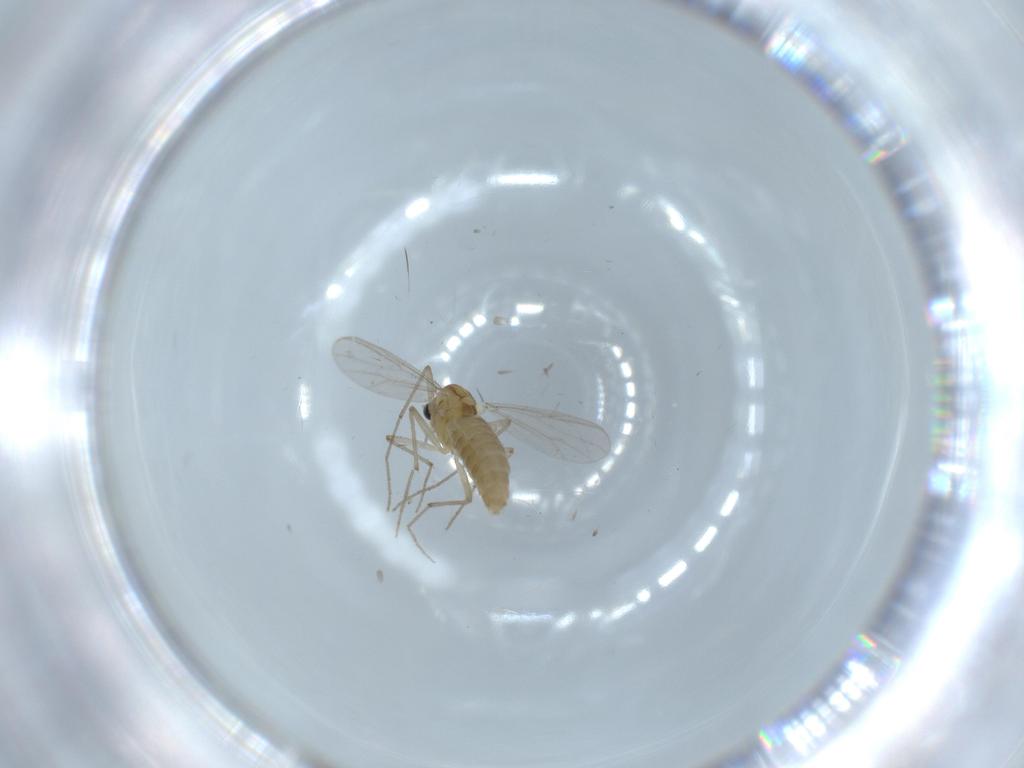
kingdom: Animalia
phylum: Arthropoda
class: Insecta
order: Diptera
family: Chironomidae
